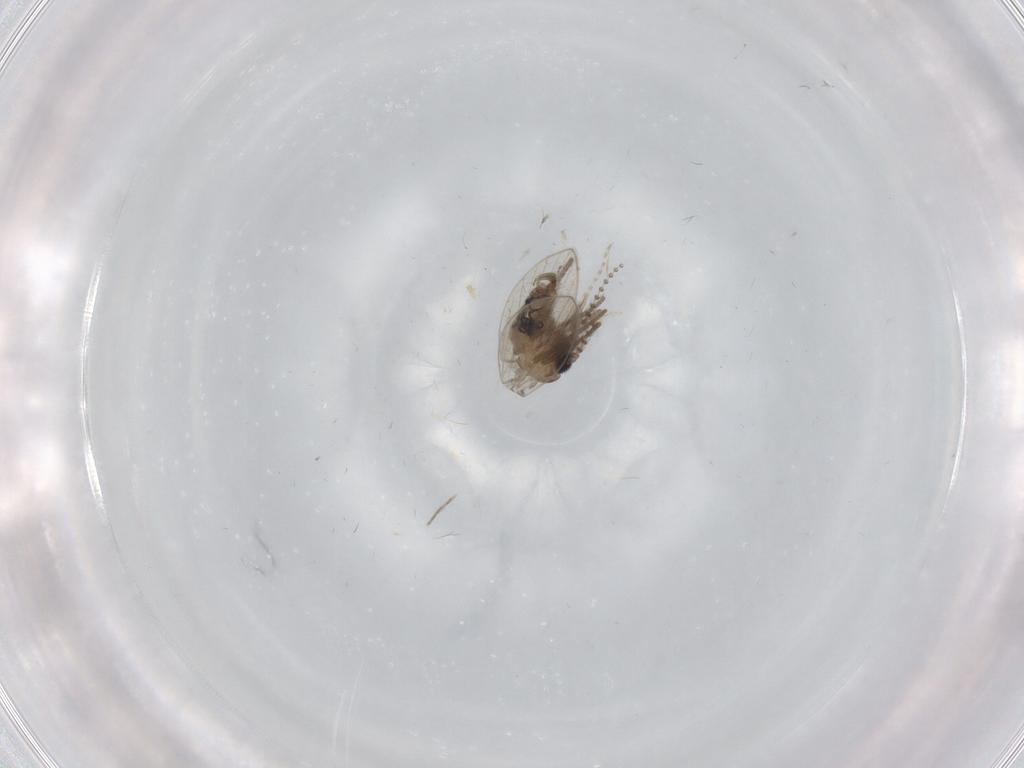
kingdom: Animalia
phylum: Arthropoda
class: Insecta
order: Diptera
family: Psychodidae
